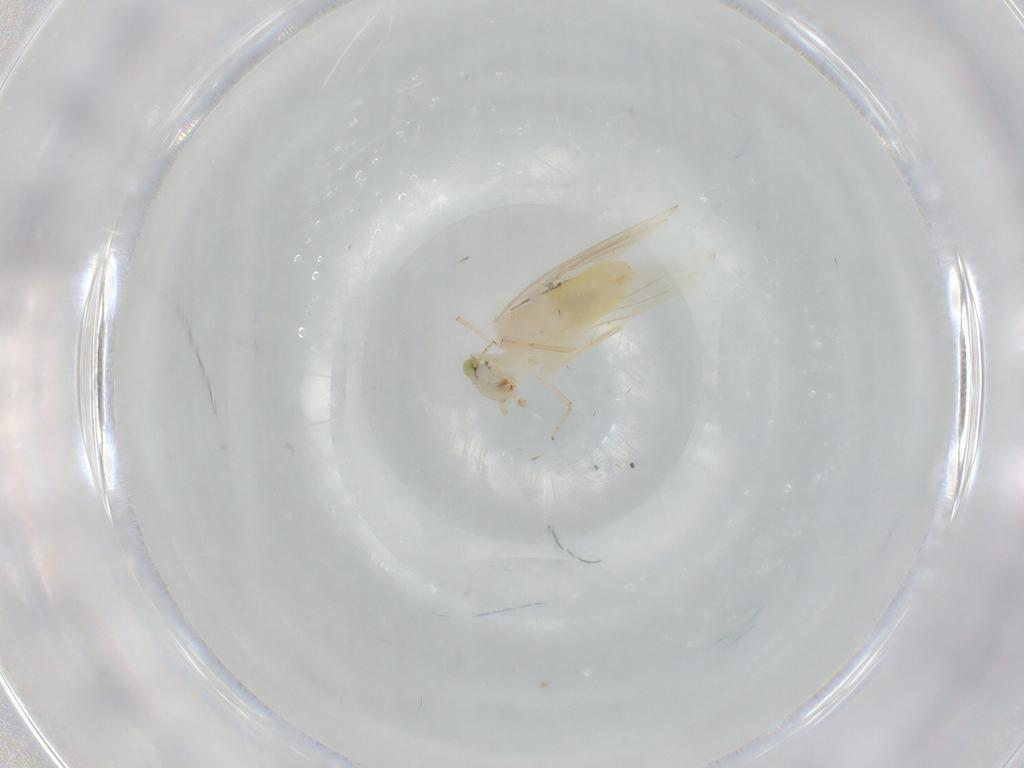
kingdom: Animalia
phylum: Arthropoda
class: Insecta
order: Psocodea
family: Lepidopsocidae
